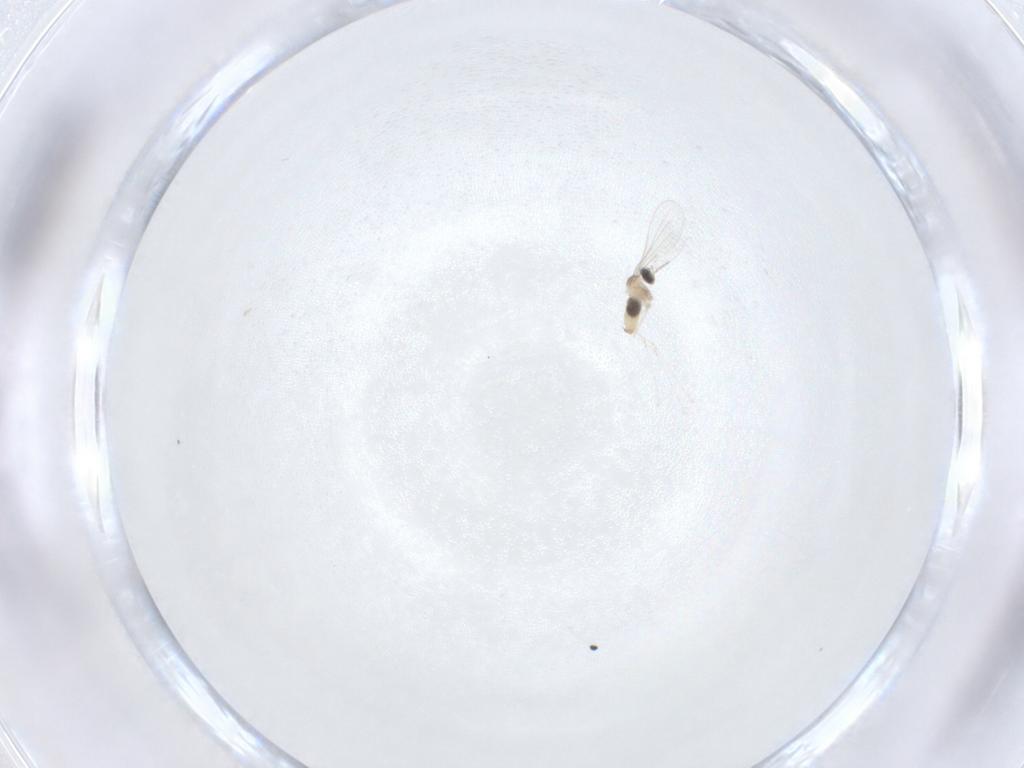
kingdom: Animalia
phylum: Arthropoda
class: Insecta
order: Diptera
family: Cecidomyiidae
